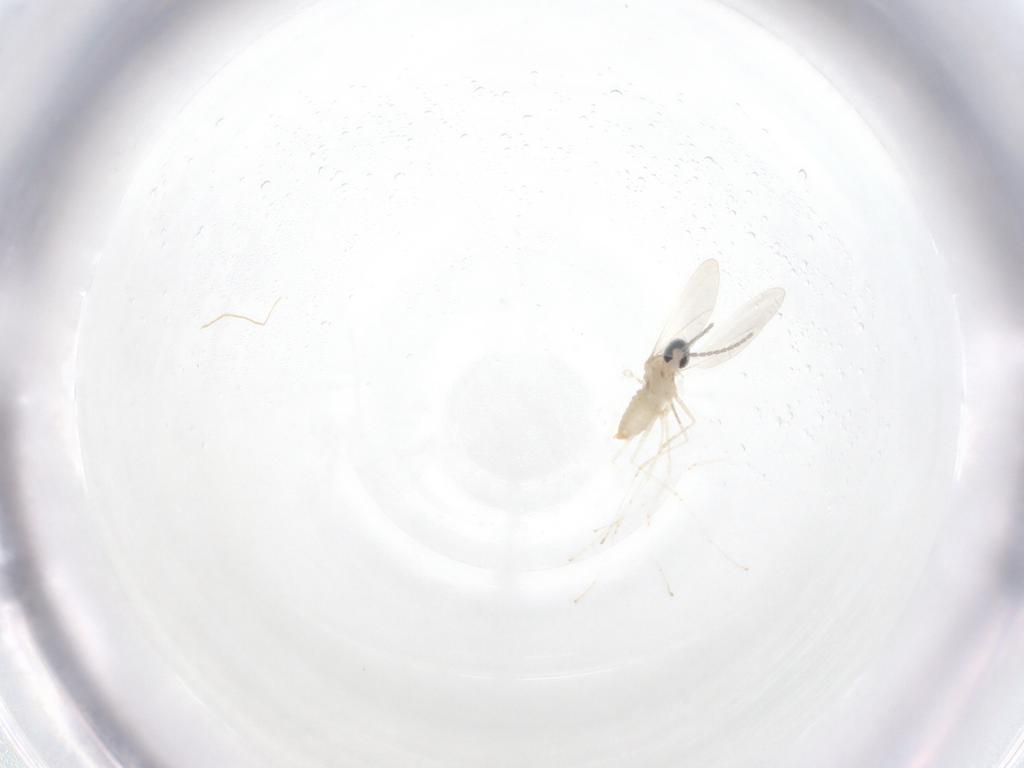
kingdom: Animalia
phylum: Arthropoda
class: Insecta
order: Diptera
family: Cecidomyiidae
